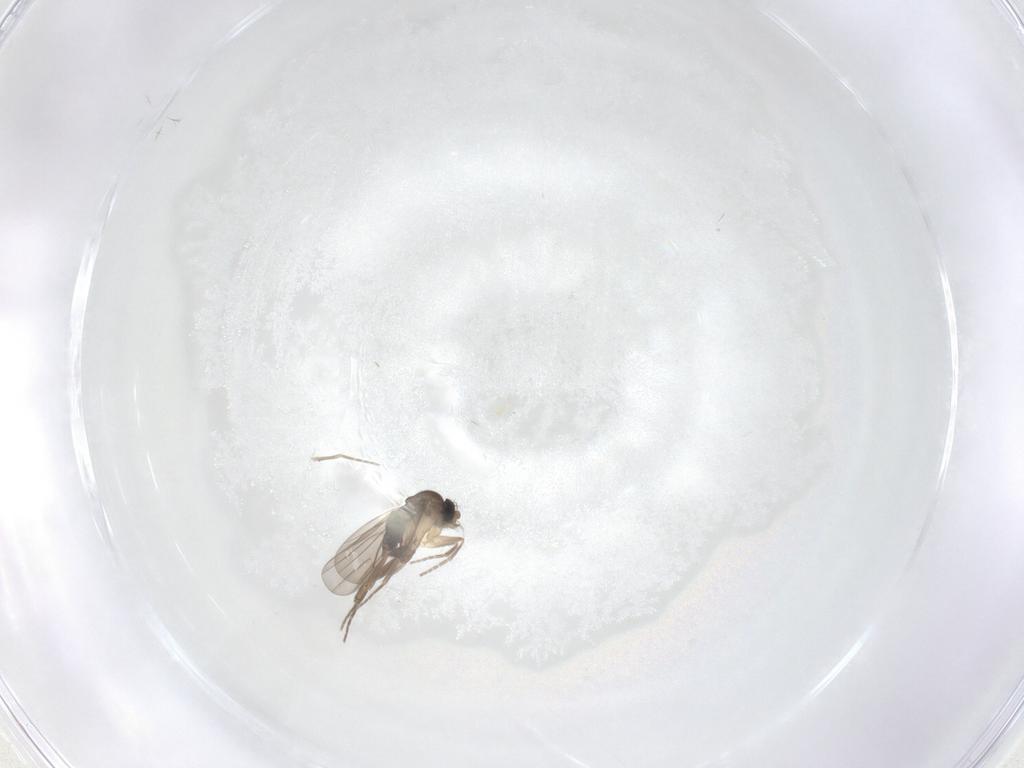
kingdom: Animalia
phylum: Arthropoda
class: Insecta
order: Diptera
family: Phoridae
